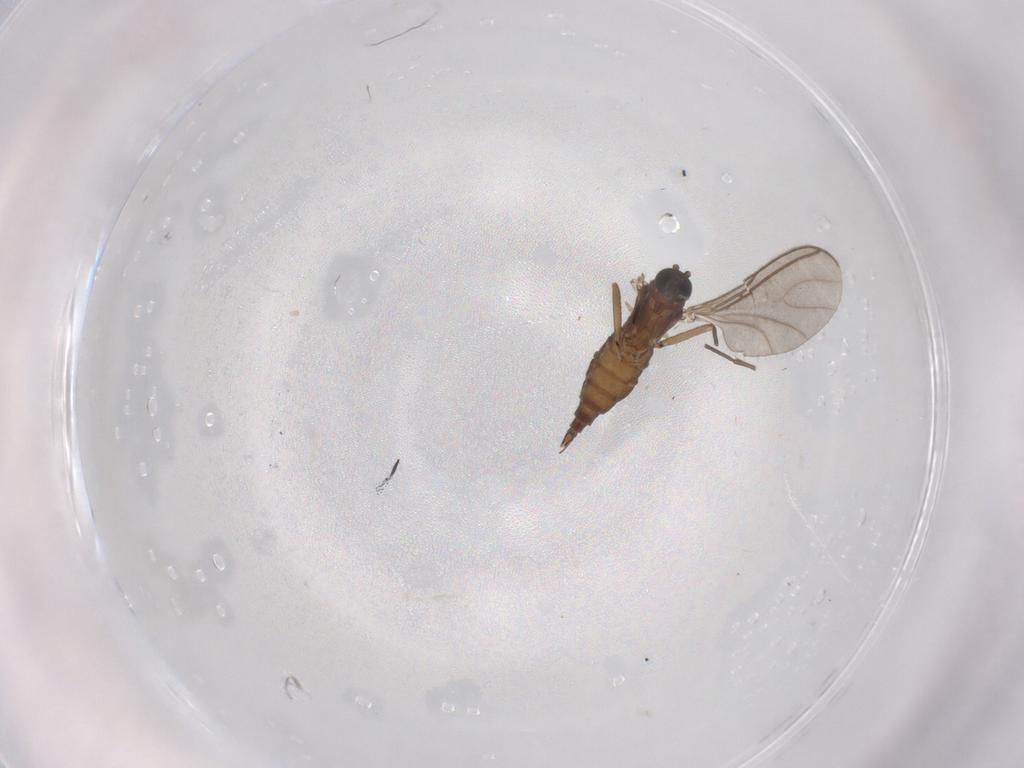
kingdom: Animalia
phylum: Arthropoda
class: Insecta
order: Diptera
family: Sciaridae
